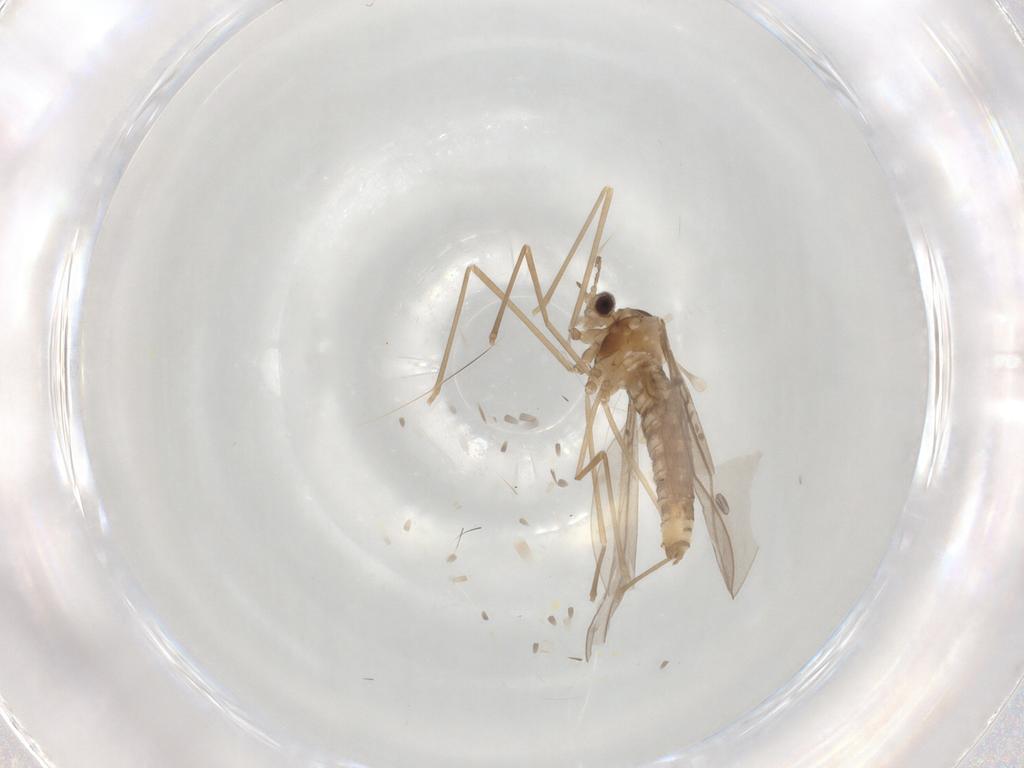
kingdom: Animalia
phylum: Arthropoda
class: Insecta
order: Diptera
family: Cecidomyiidae
